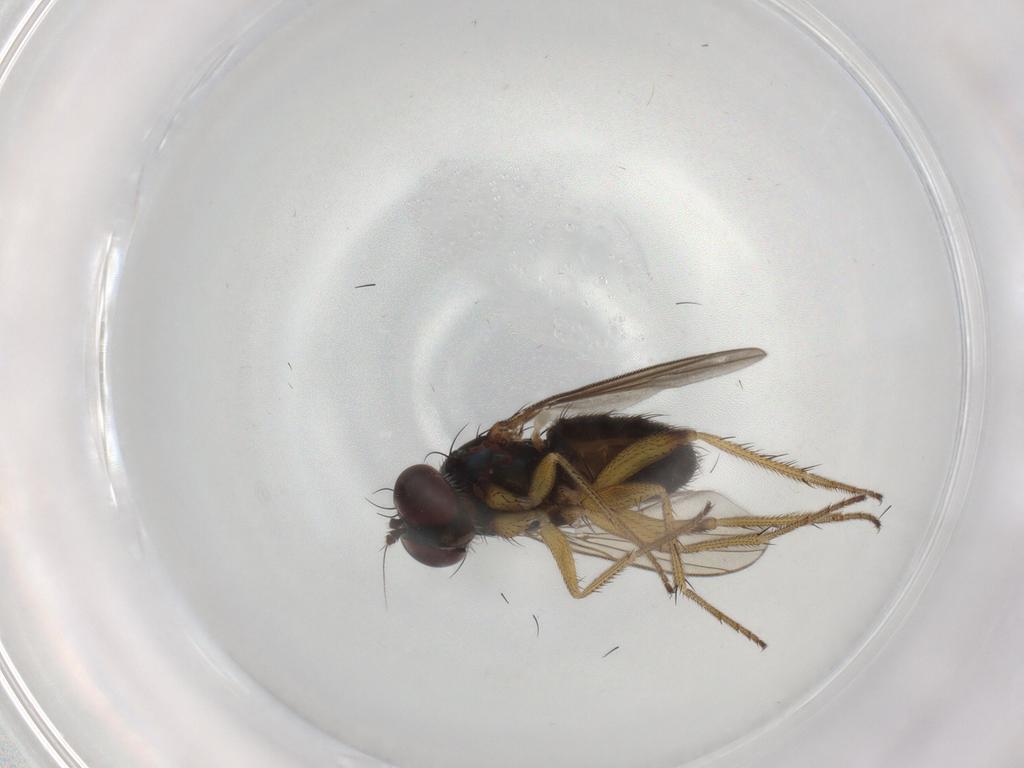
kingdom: Animalia
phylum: Arthropoda
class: Insecta
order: Diptera
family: Dolichopodidae
